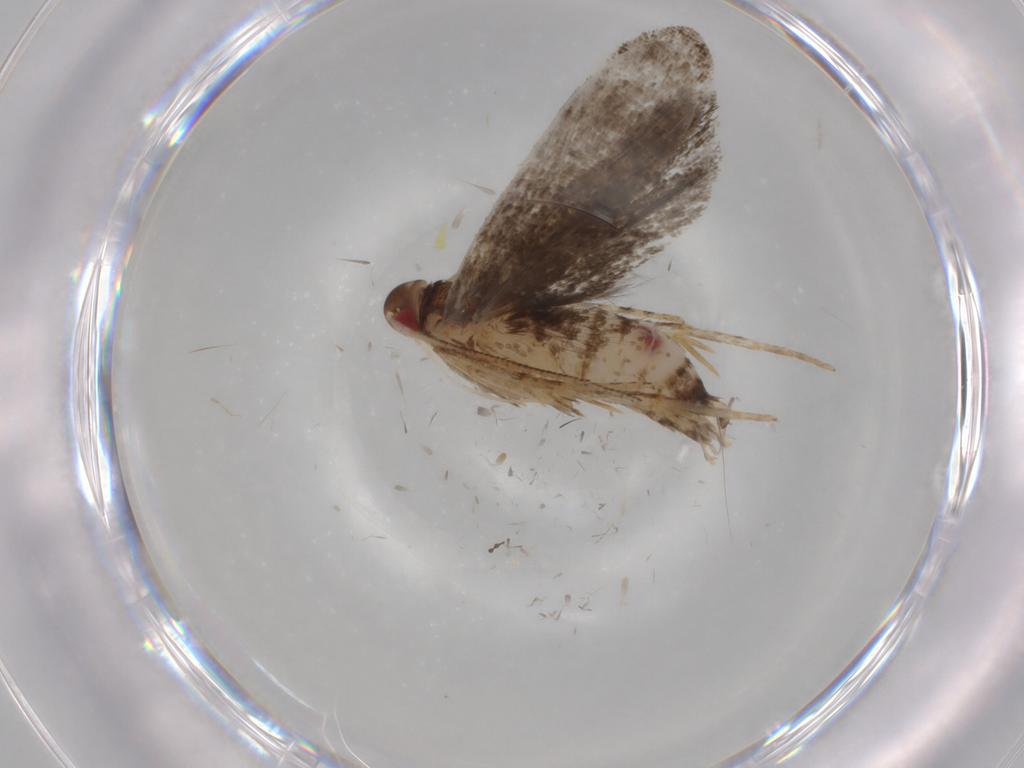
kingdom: Animalia
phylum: Arthropoda
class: Insecta
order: Lepidoptera
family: Gelechiidae
